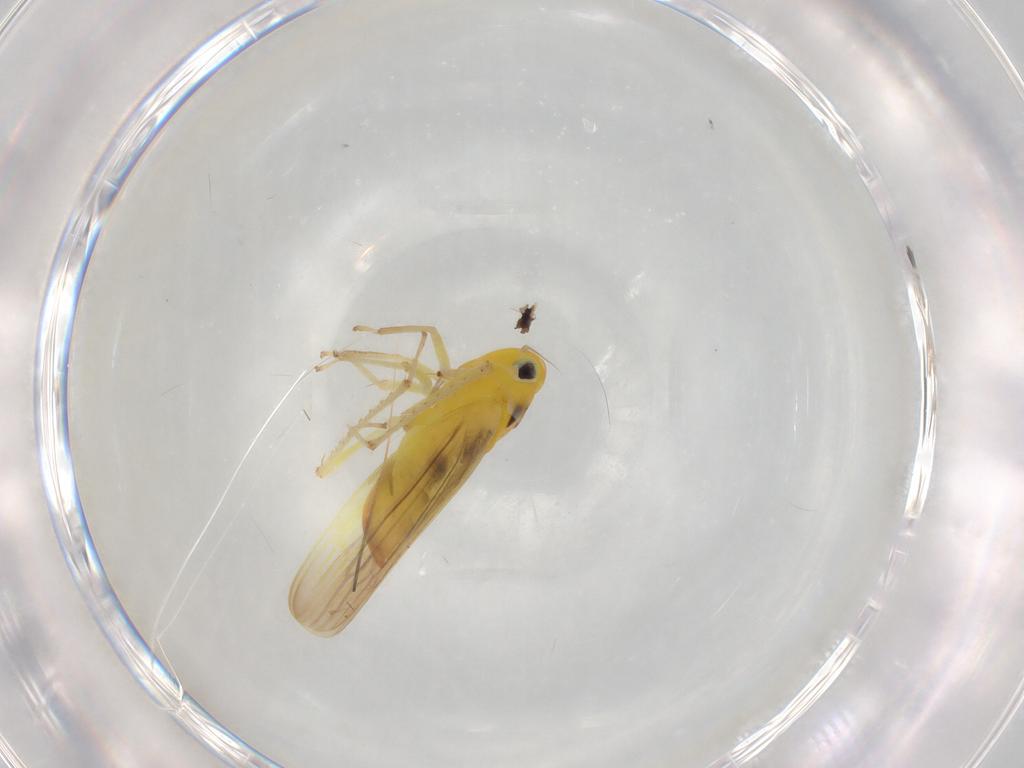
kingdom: Animalia
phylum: Arthropoda
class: Insecta
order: Hemiptera
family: Cicadellidae
